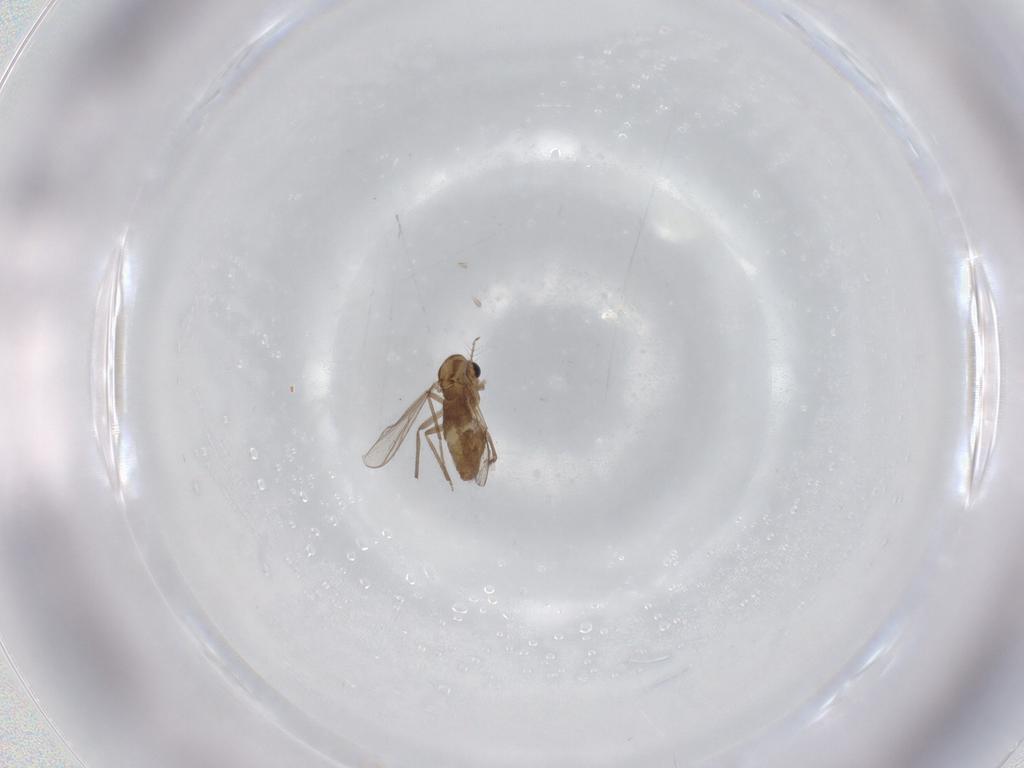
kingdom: Animalia
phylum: Arthropoda
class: Insecta
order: Diptera
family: Chironomidae
